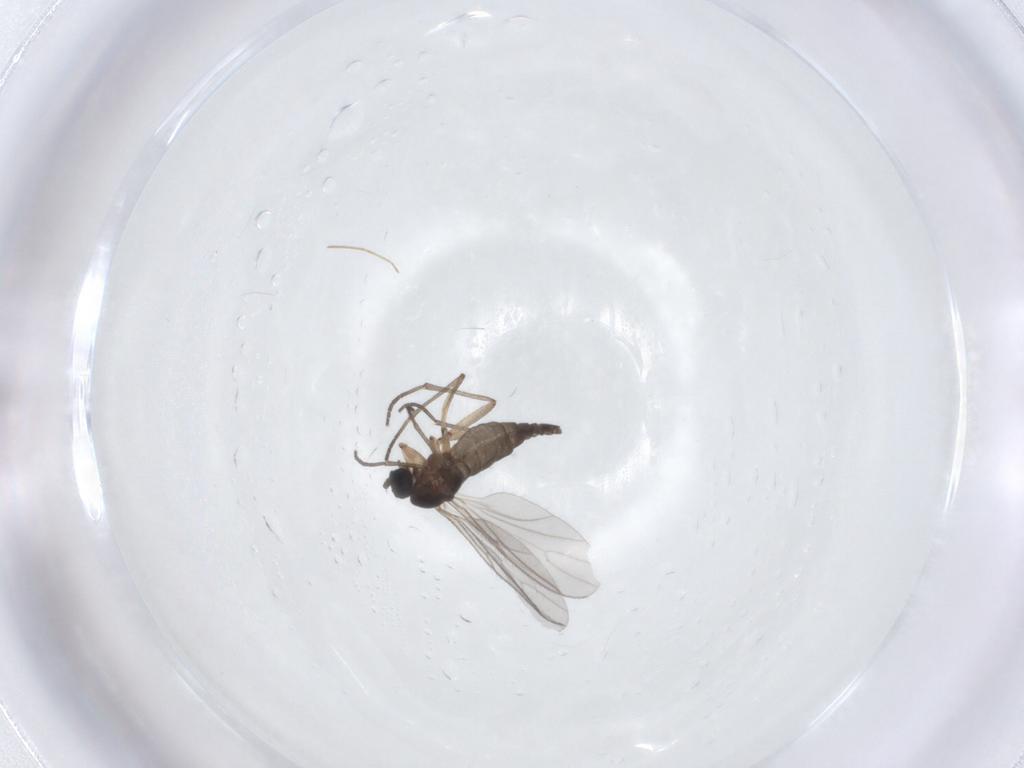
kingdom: Animalia
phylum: Arthropoda
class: Insecta
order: Diptera
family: Sciaridae
